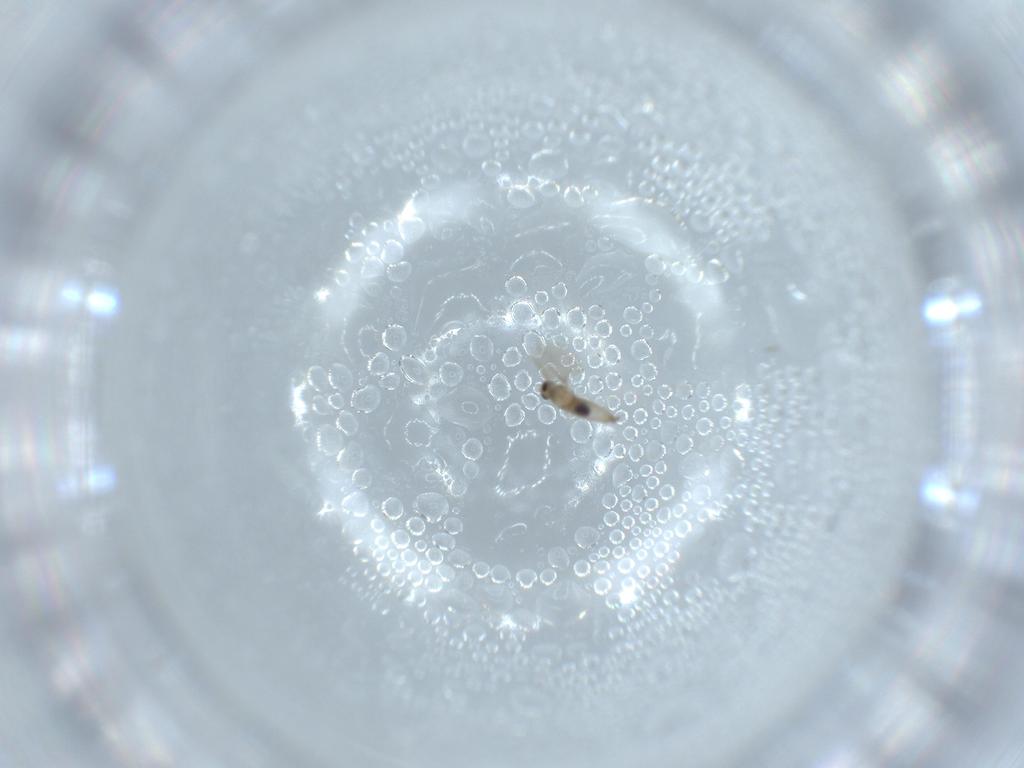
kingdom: Animalia
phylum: Arthropoda
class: Insecta
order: Diptera
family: Cecidomyiidae
